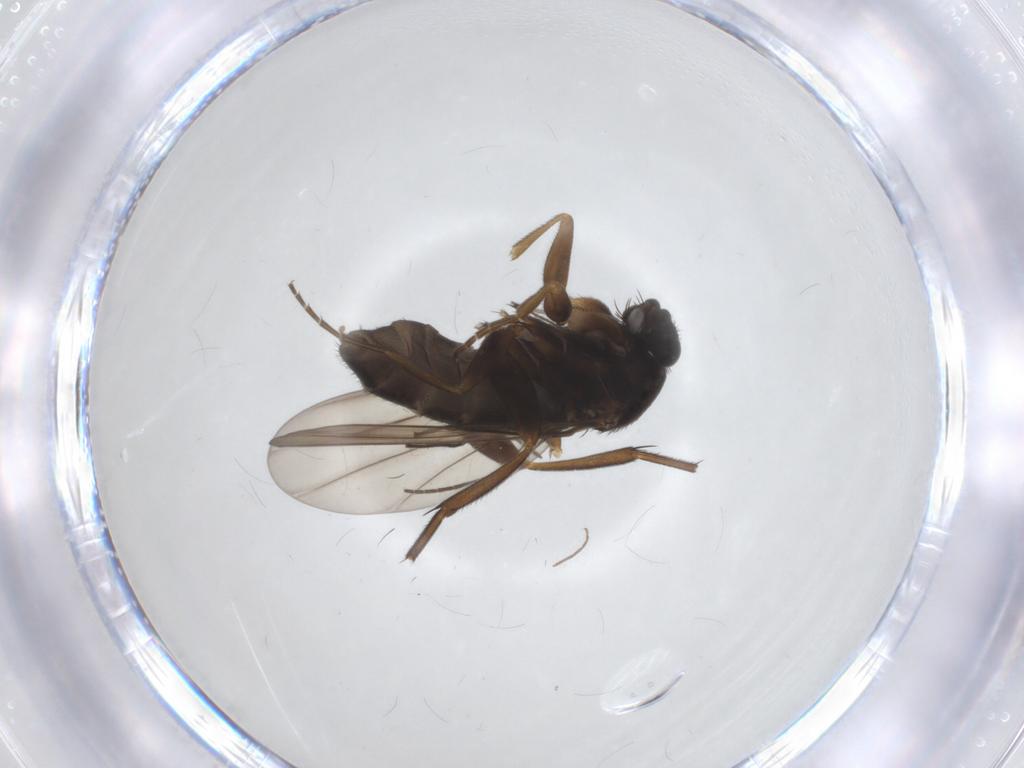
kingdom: Animalia
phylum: Arthropoda
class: Insecta
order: Diptera
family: Phoridae
